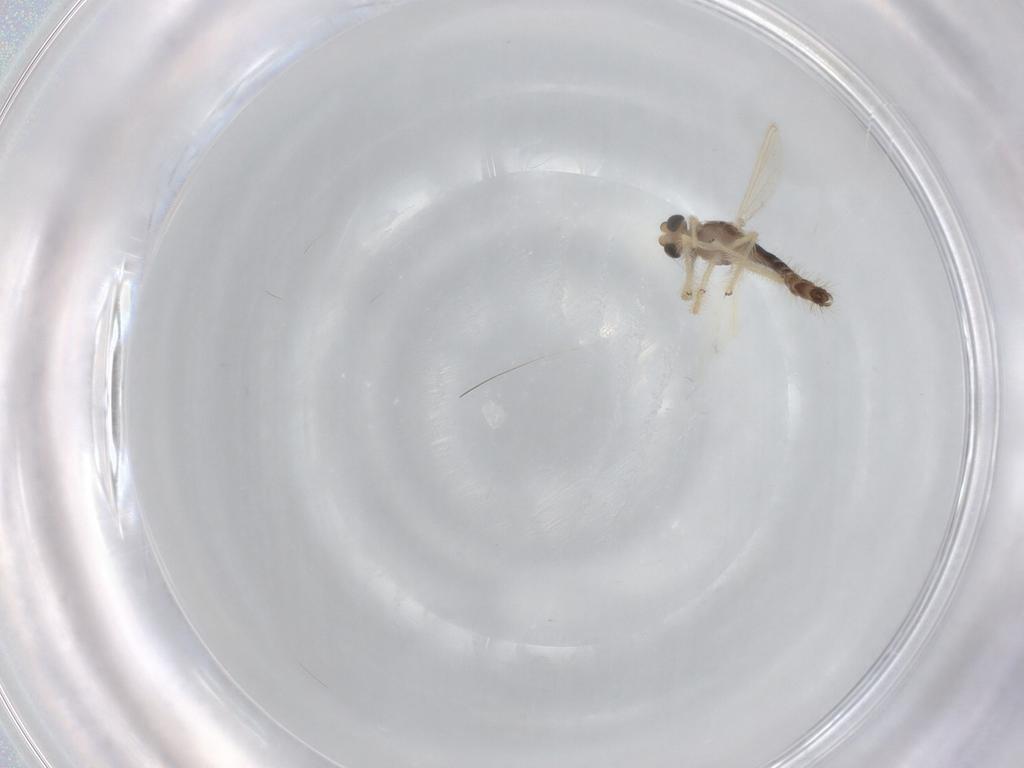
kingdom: Animalia
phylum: Arthropoda
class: Insecta
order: Diptera
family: Chironomidae
